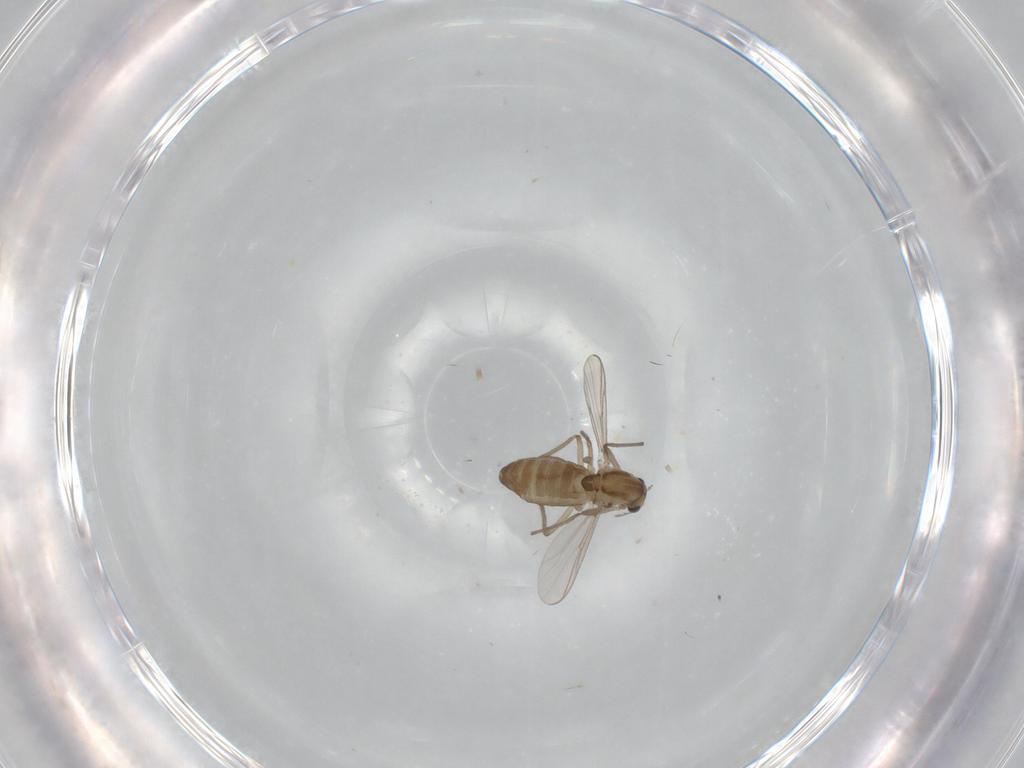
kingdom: Animalia
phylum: Arthropoda
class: Insecta
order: Diptera
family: Chironomidae
